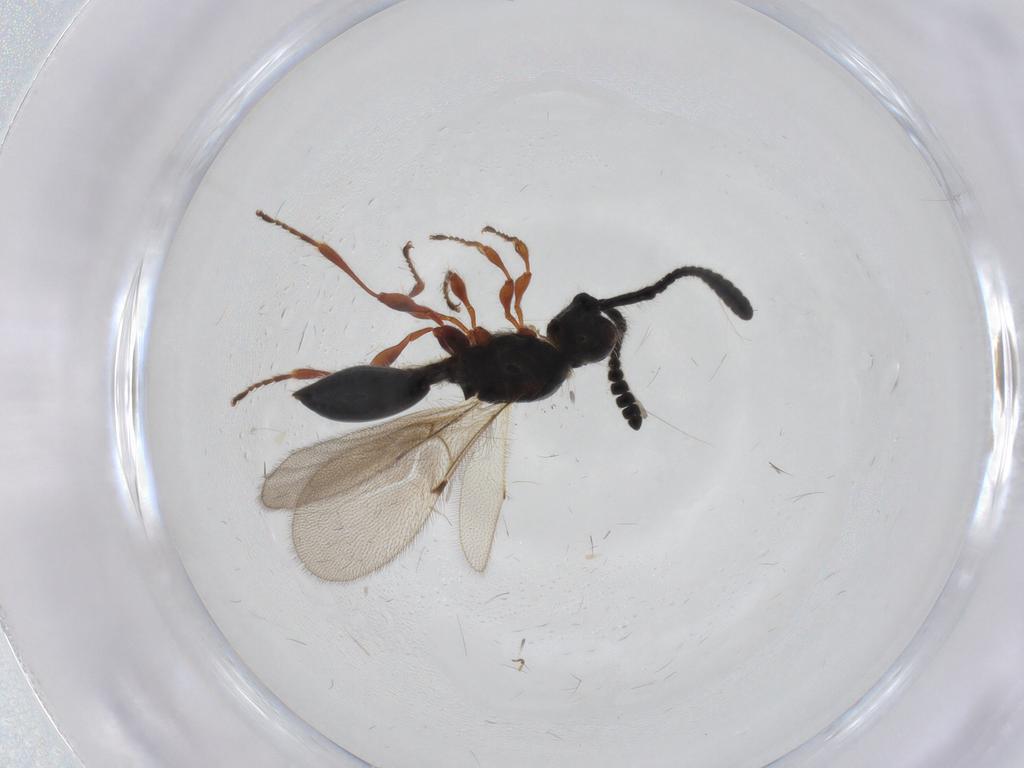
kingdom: Animalia
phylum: Arthropoda
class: Insecta
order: Hymenoptera
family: Diapriidae
